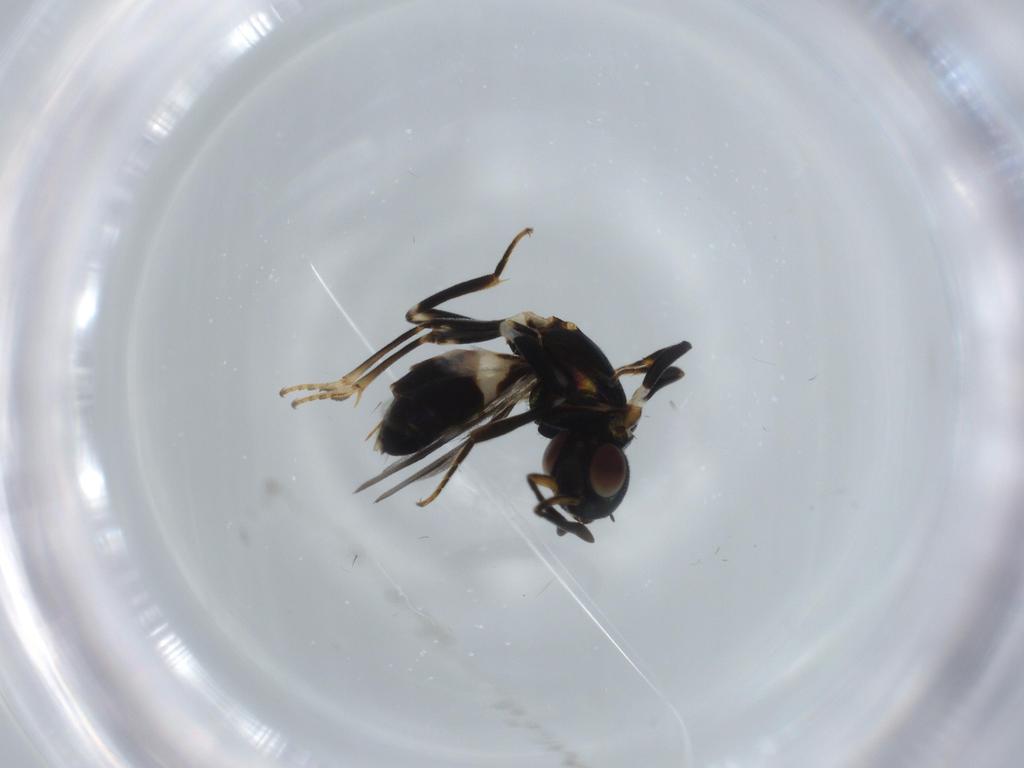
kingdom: Animalia
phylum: Arthropoda
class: Insecta
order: Hymenoptera
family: Eupelmidae
